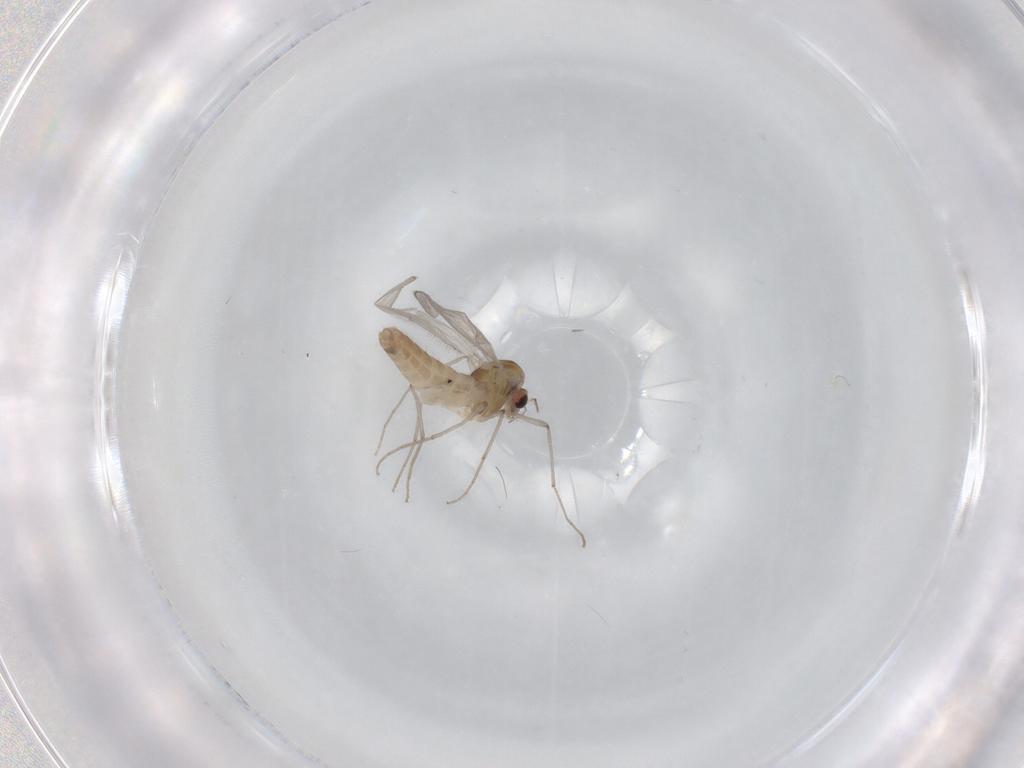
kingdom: Animalia
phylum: Arthropoda
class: Insecta
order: Diptera
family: Chironomidae
